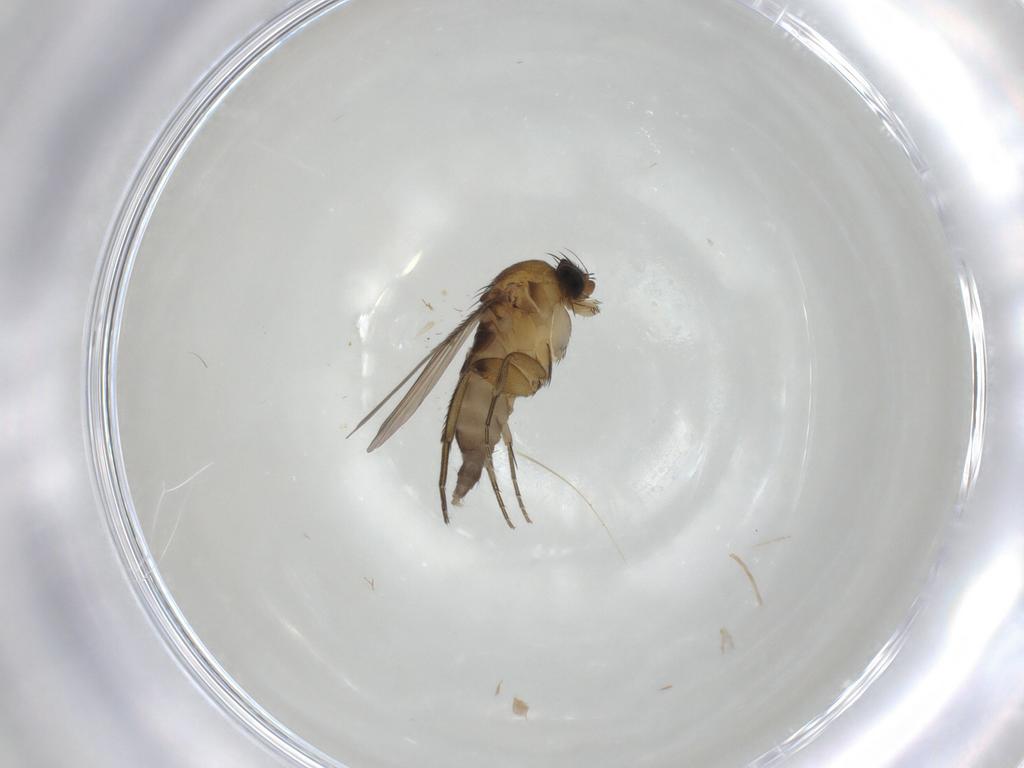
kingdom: Animalia
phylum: Arthropoda
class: Insecta
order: Diptera
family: Phoridae
